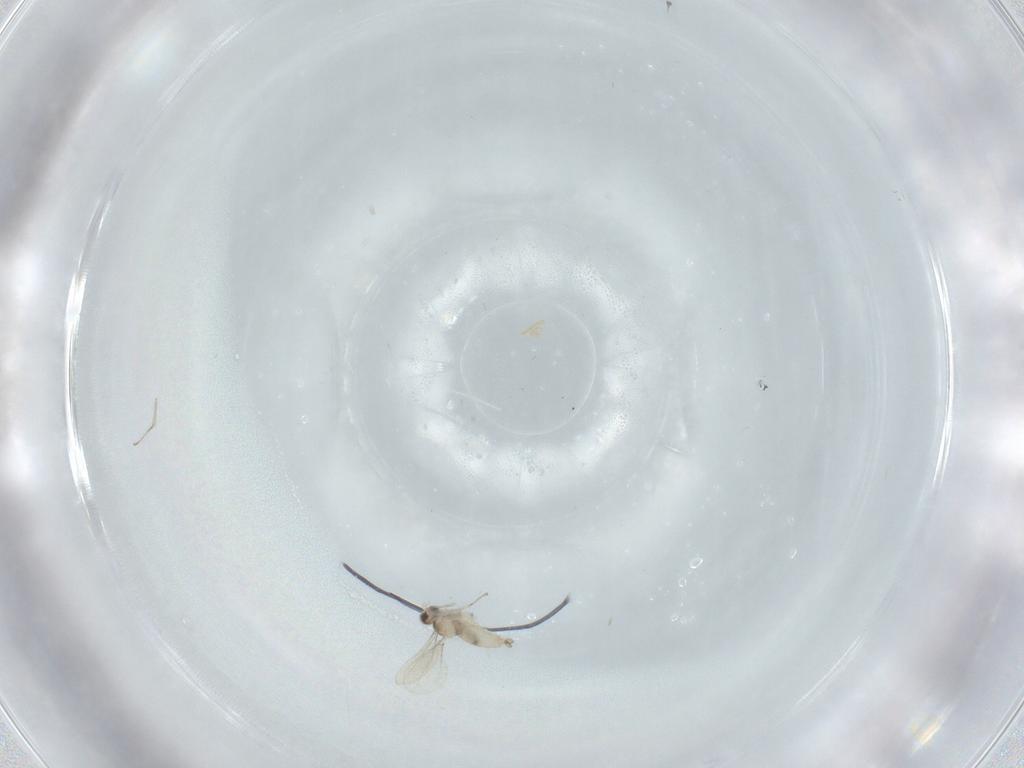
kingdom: Animalia
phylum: Arthropoda
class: Insecta
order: Diptera
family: Cecidomyiidae
